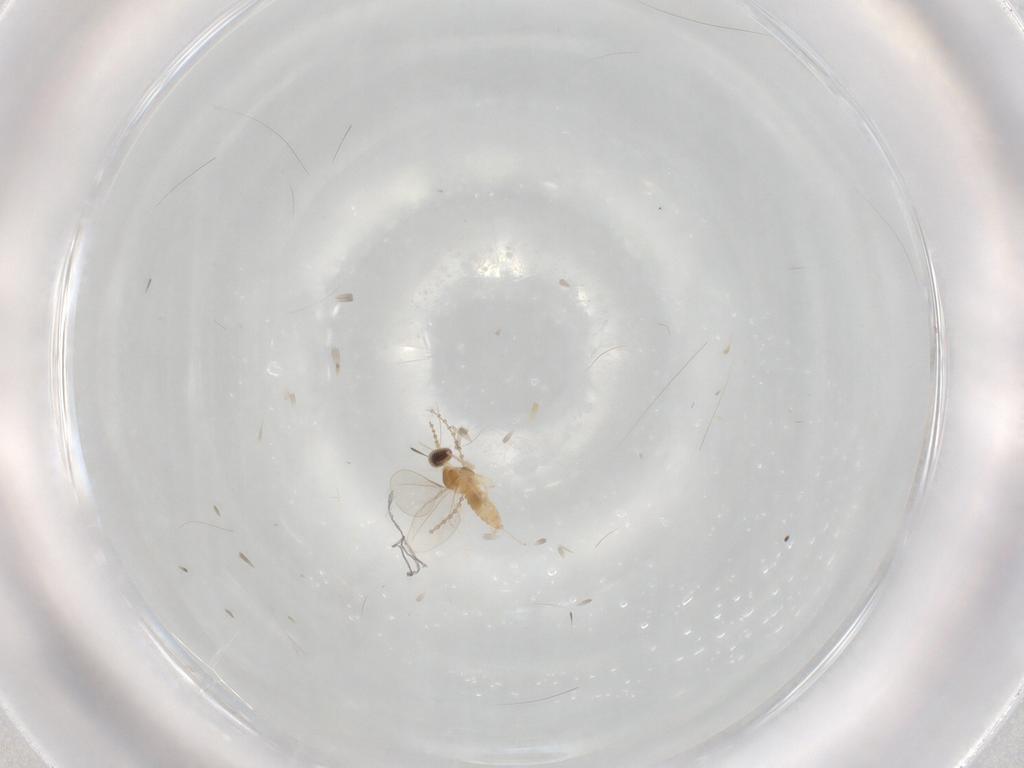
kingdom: Animalia
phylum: Arthropoda
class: Insecta
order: Diptera
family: Cecidomyiidae
